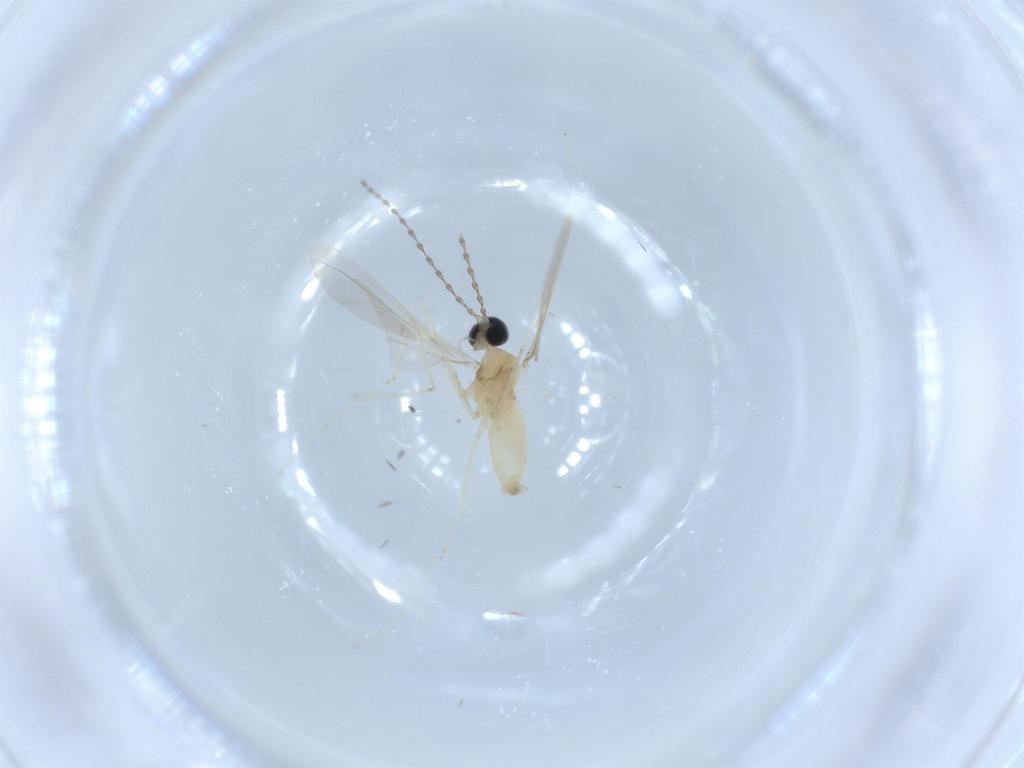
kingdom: Animalia
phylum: Arthropoda
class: Insecta
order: Diptera
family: Cecidomyiidae
